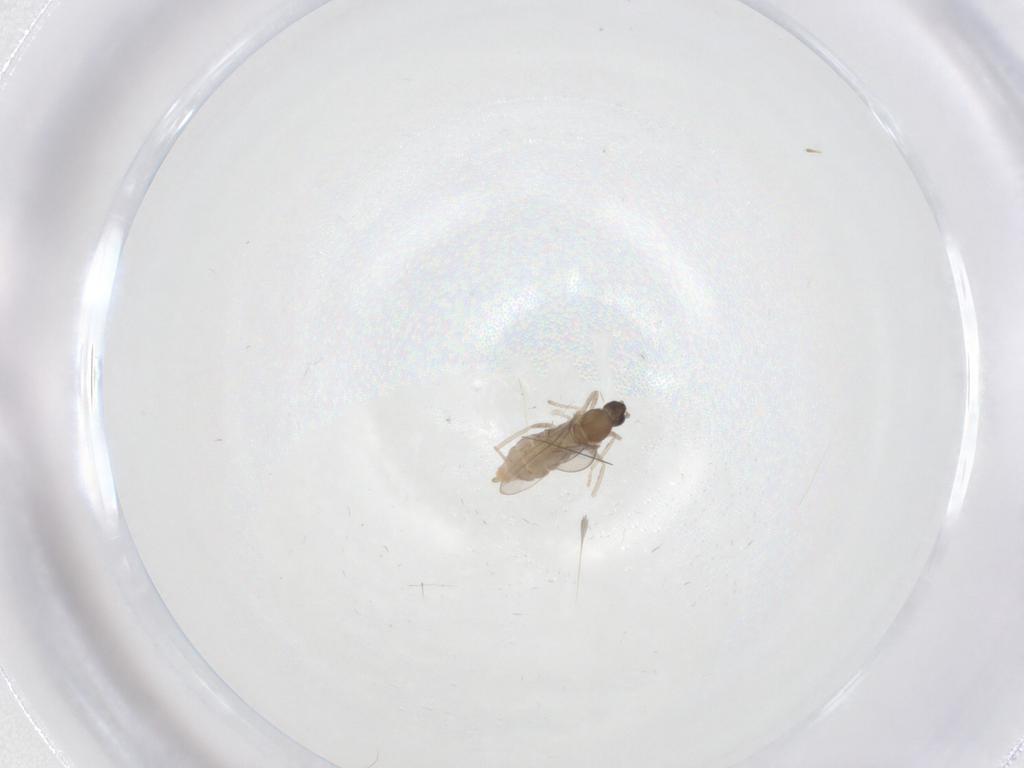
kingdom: Animalia
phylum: Arthropoda
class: Insecta
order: Diptera
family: Cecidomyiidae
